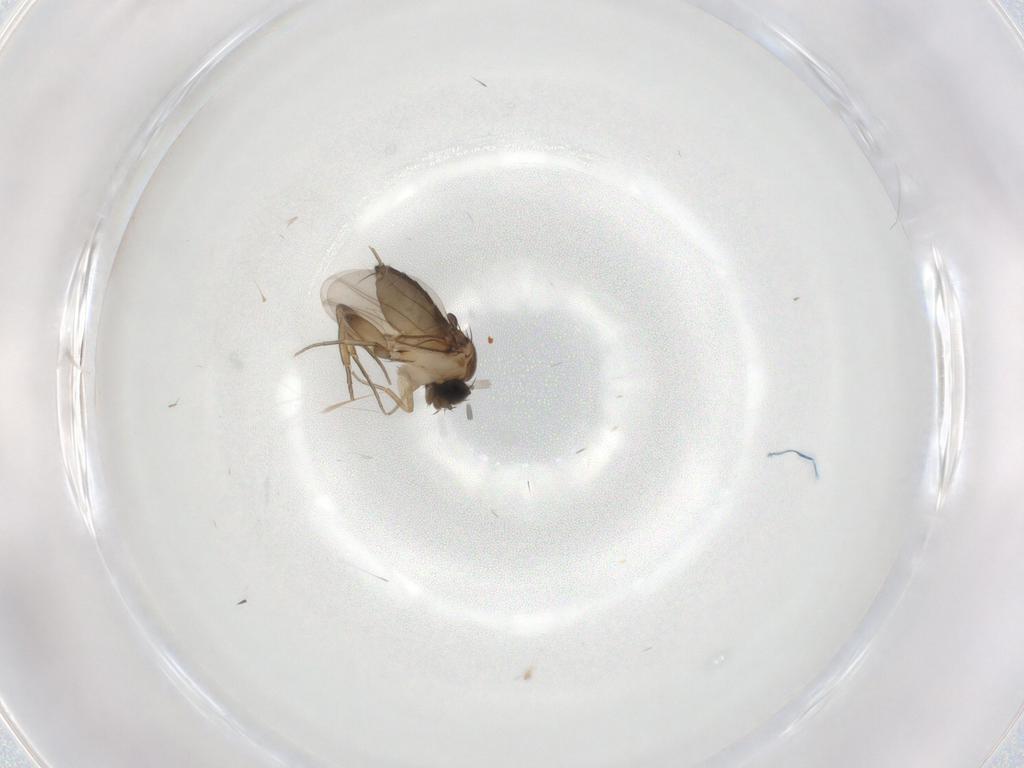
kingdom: Animalia
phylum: Arthropoda
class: Insecta
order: Diptera
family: Phoridae
